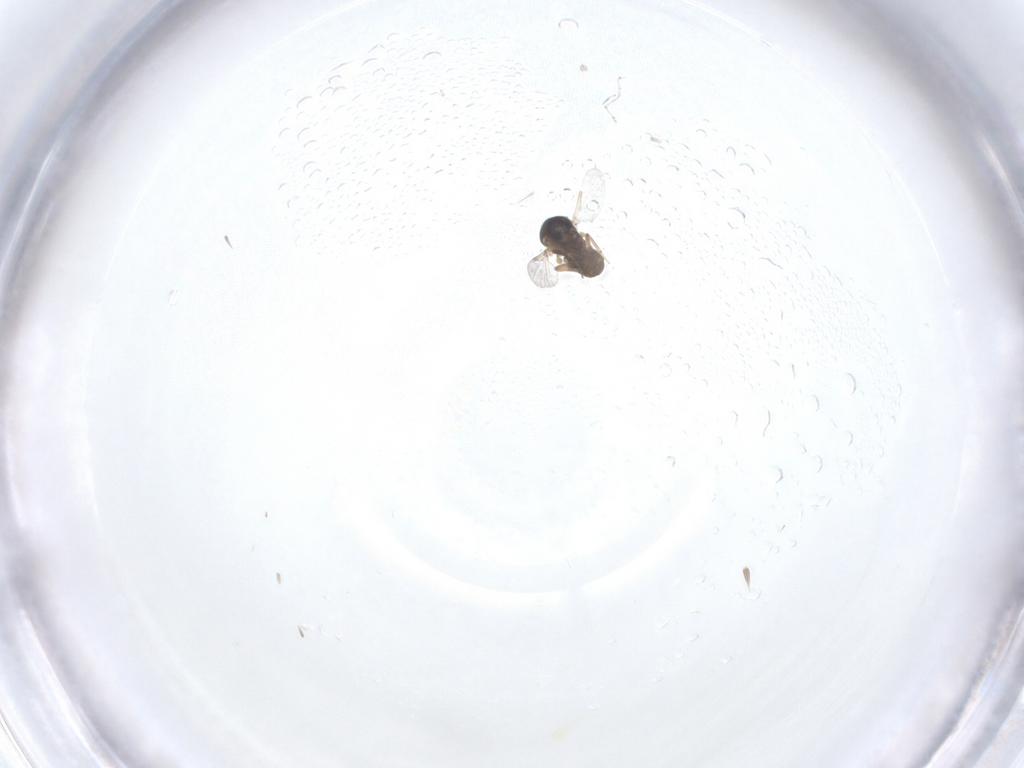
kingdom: Animalia
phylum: Arthropoda
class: Insecta
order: Diptera
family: Ceratopogonidae
